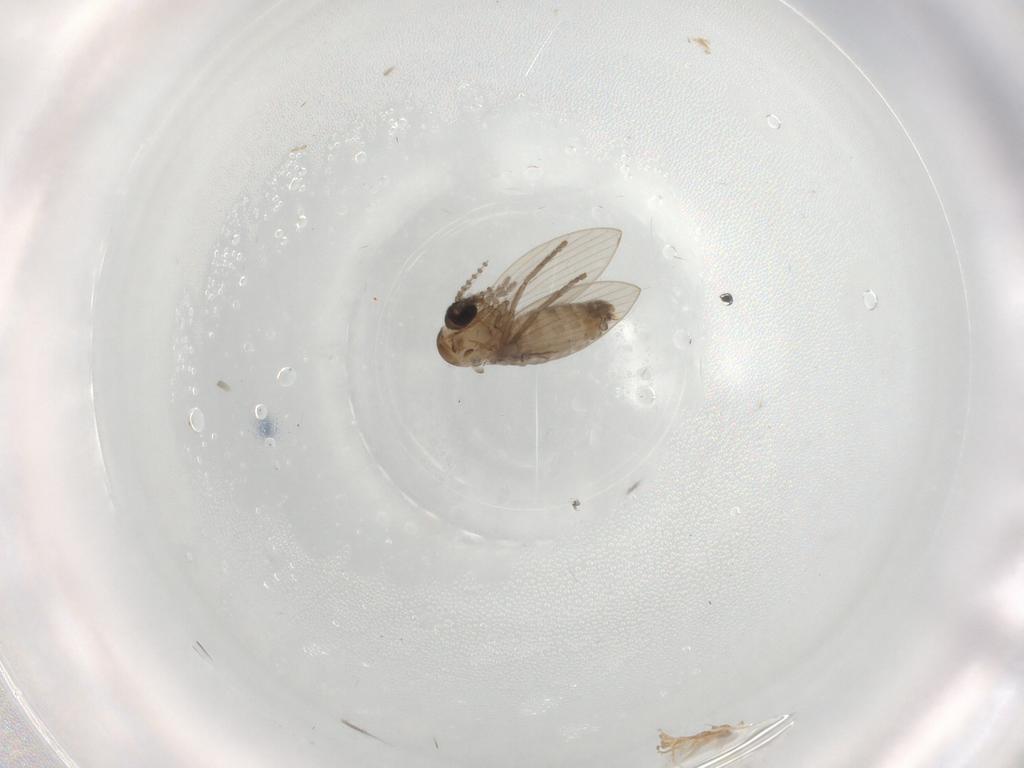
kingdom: Animalia
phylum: Arthropoda
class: Insecta
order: Diptera
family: Psychodidae
